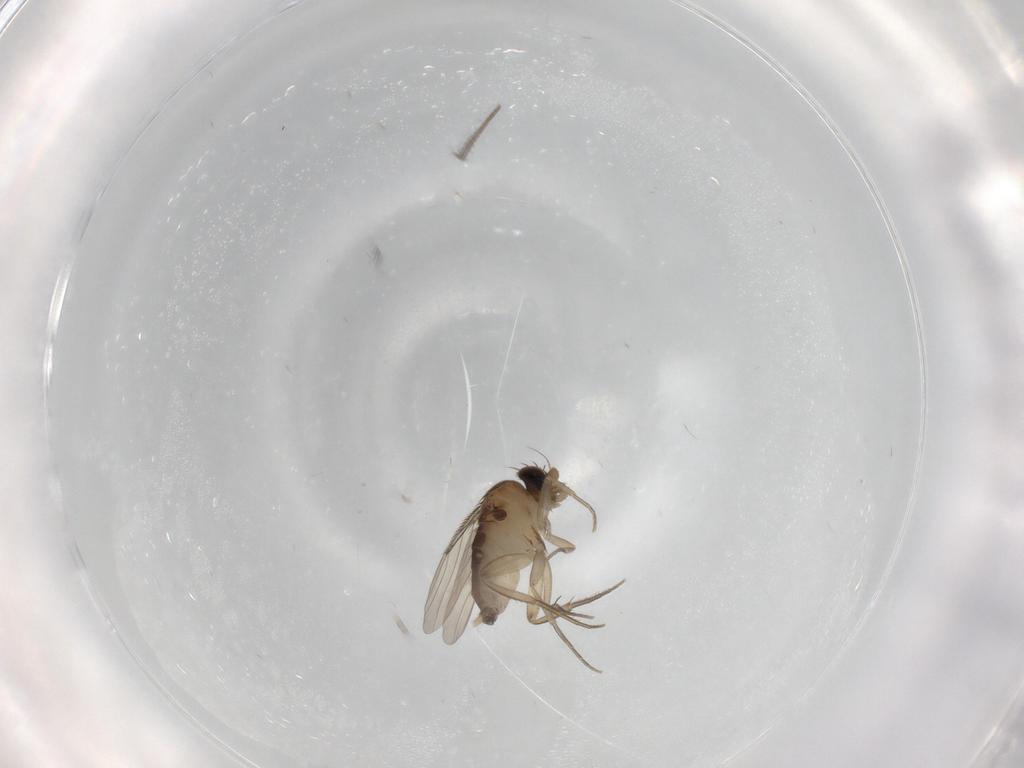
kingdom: Animalia
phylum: Arthropoda
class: Insecta
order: Diptera
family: Phoridae
